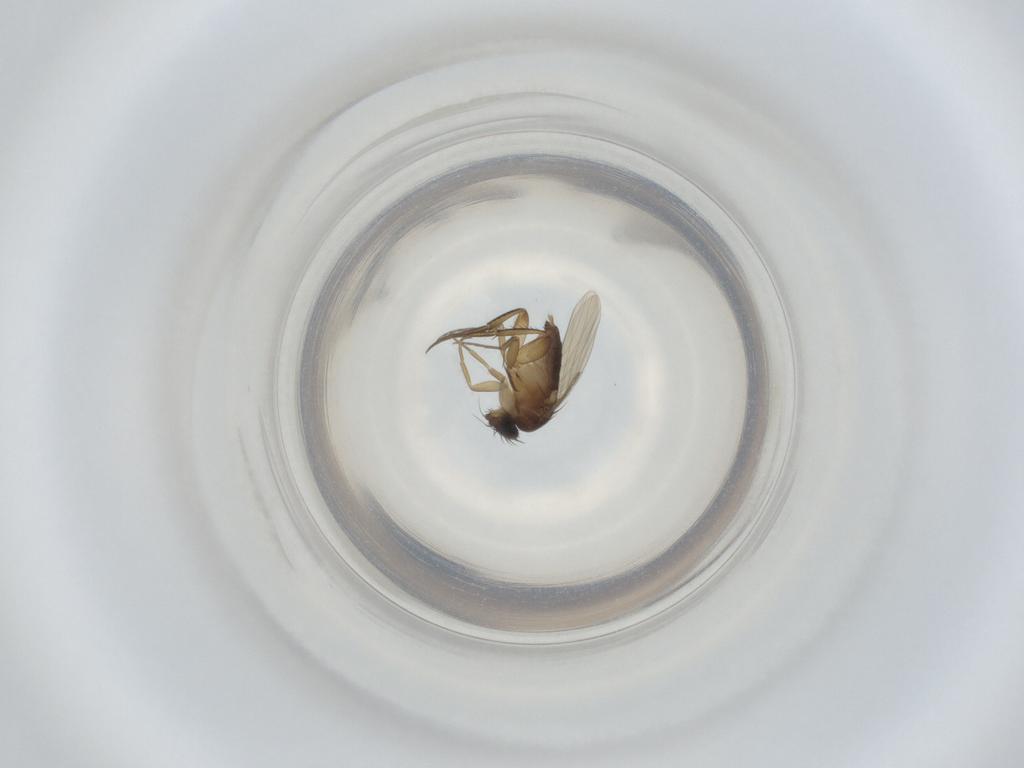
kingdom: Animalia
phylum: Arthropoda
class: Insecta
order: Diptera
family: Phoridae
